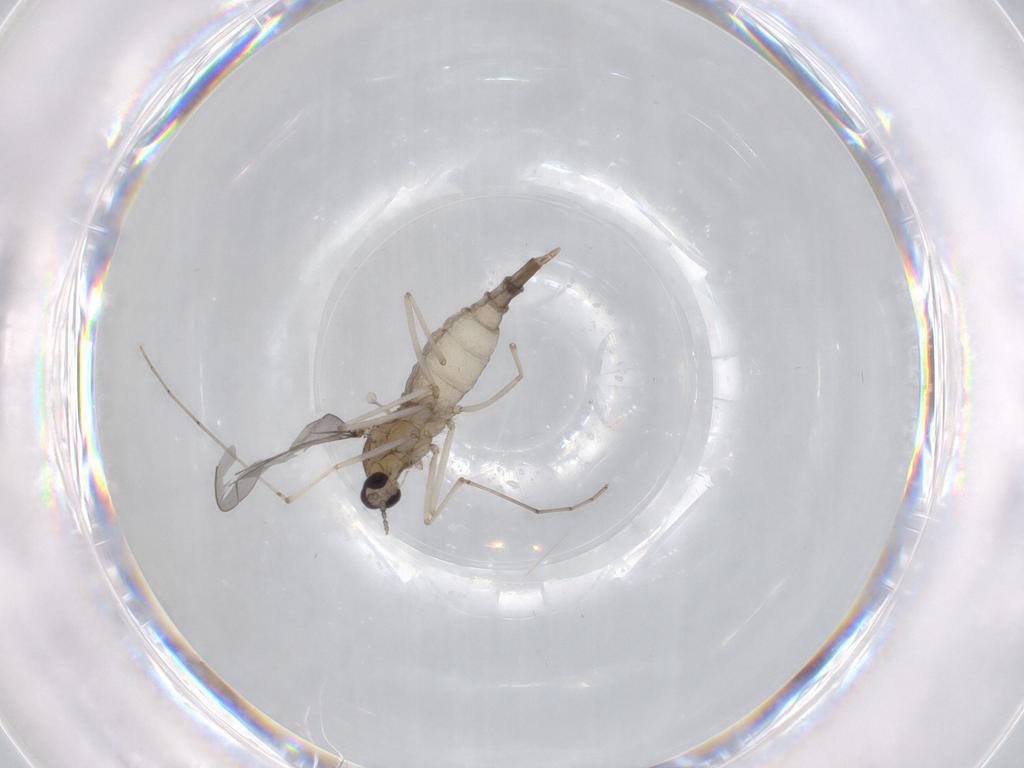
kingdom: Animalia
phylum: Arthropoda
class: Insecta
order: Diptera
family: Cecidomyiidae
